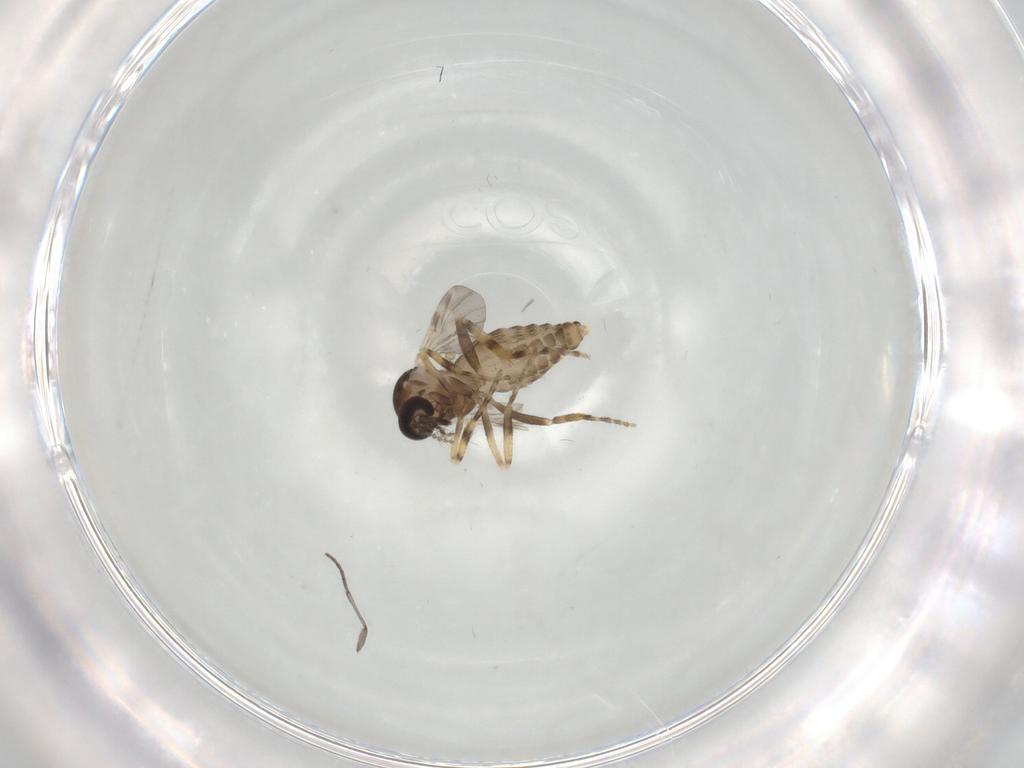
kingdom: Animalia
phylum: Arthropoda
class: Insecta
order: Diptera
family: Ceratopogonidae
